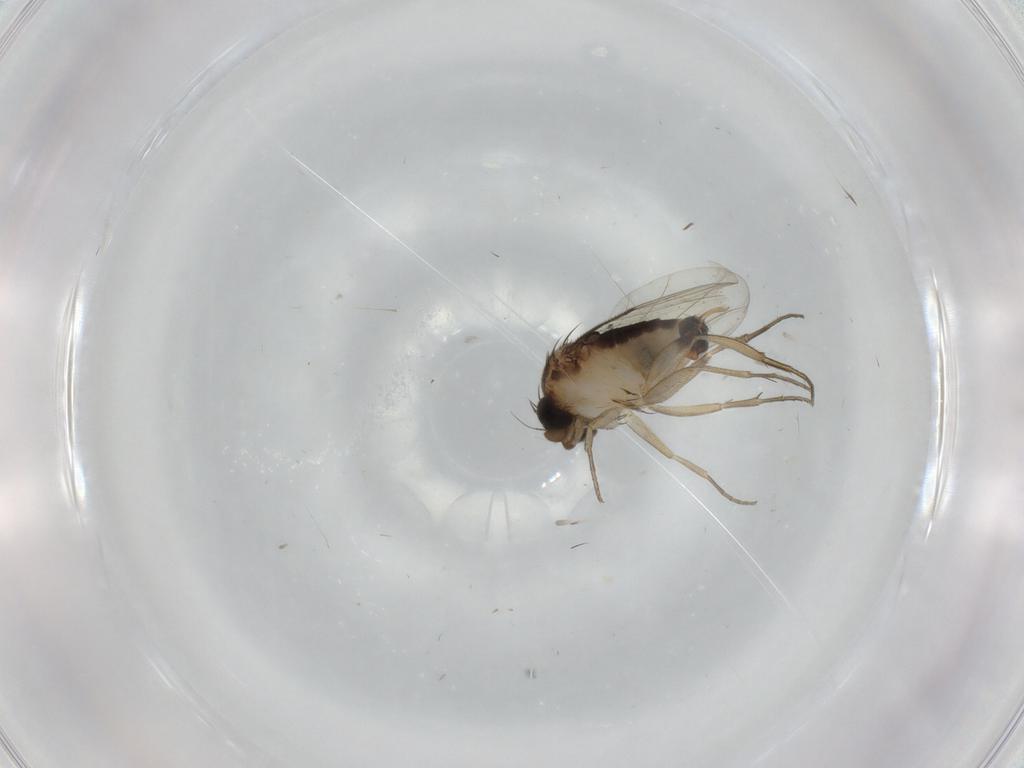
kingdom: Animalia
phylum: Arthropoda
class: Insecta
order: Diptera
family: Phoridae
